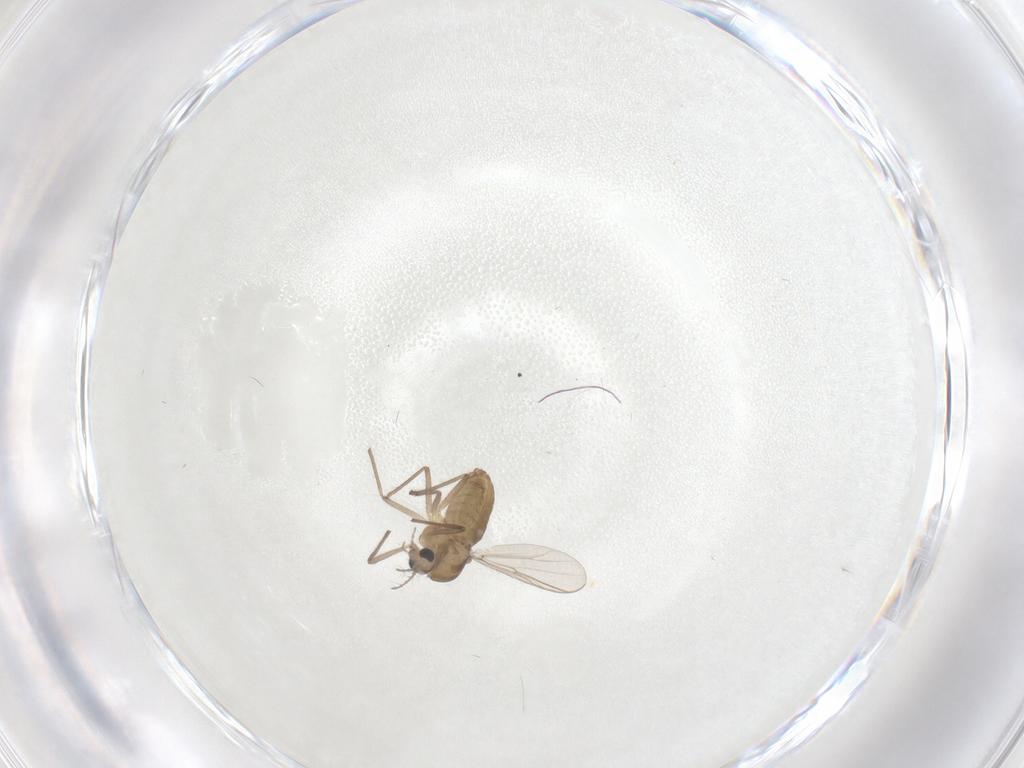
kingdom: Animalia
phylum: Arthropoda
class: Insecta
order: Diptera
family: Chironomidae
